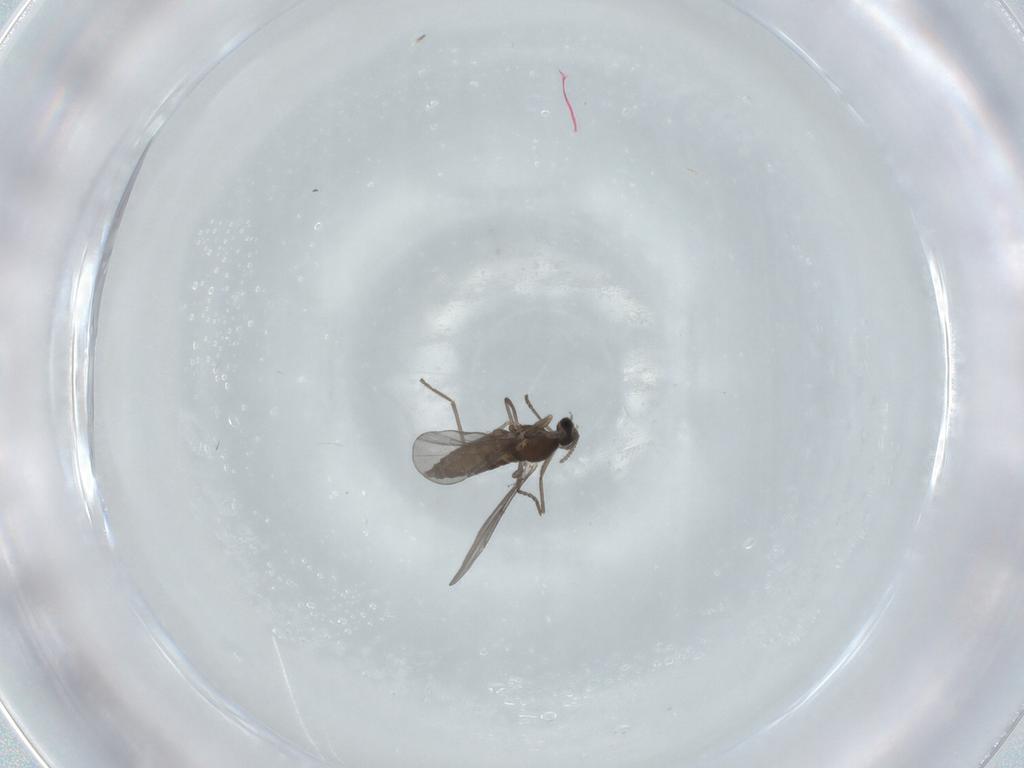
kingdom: Animalia
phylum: Arthropoda
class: Insecta
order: Diptera
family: Cecidomyiidae
